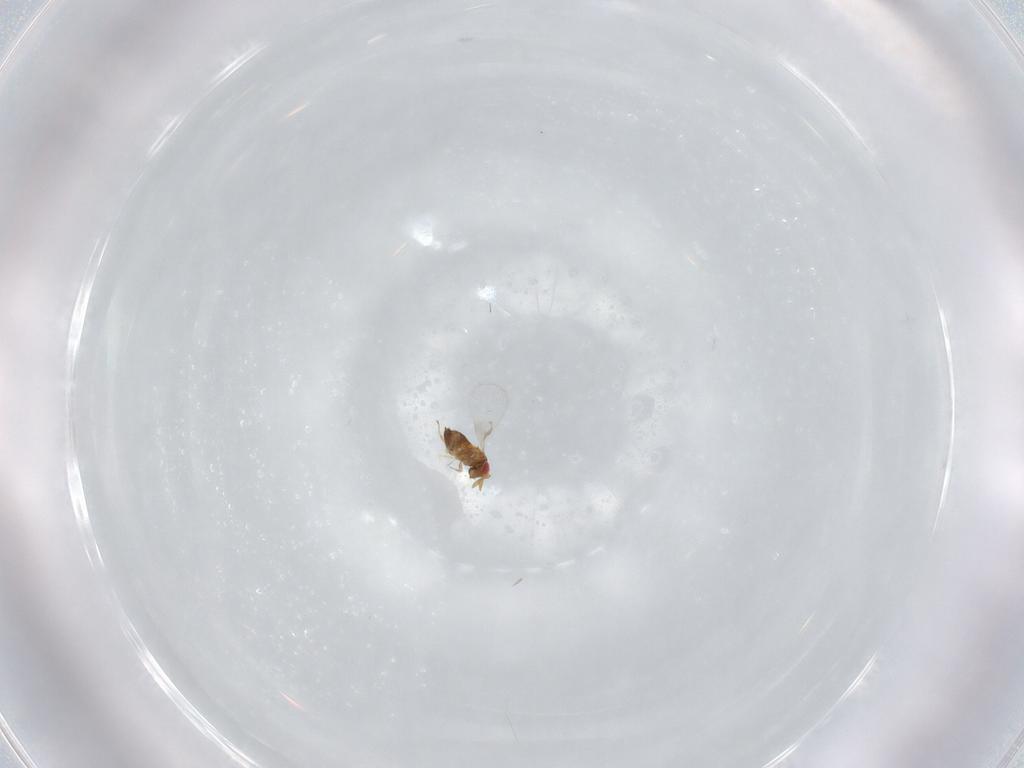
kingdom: Animalia
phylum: Arthropoda
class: Insecta
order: Hymenoptera
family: Trichogrammatidae
